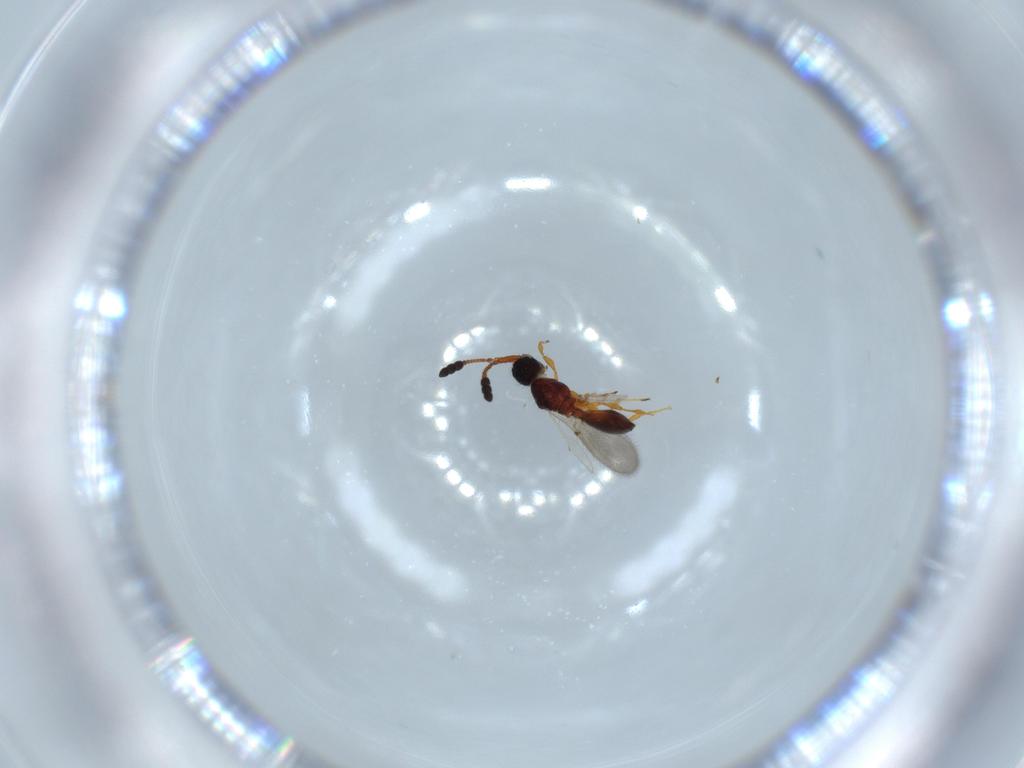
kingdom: Animalia
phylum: Arthropoda
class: Insecta
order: Hymenoptera
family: Diapriidae
